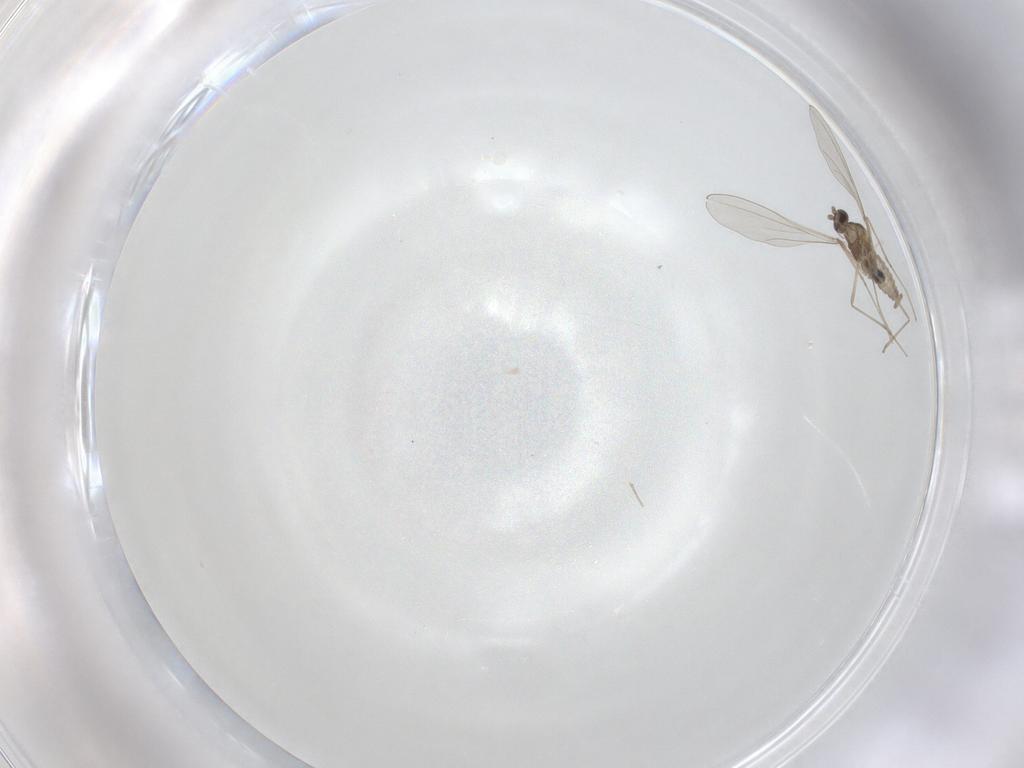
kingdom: Animalia
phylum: Arthropoda
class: Insecta
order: Diptera
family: Cecidomyiidae
